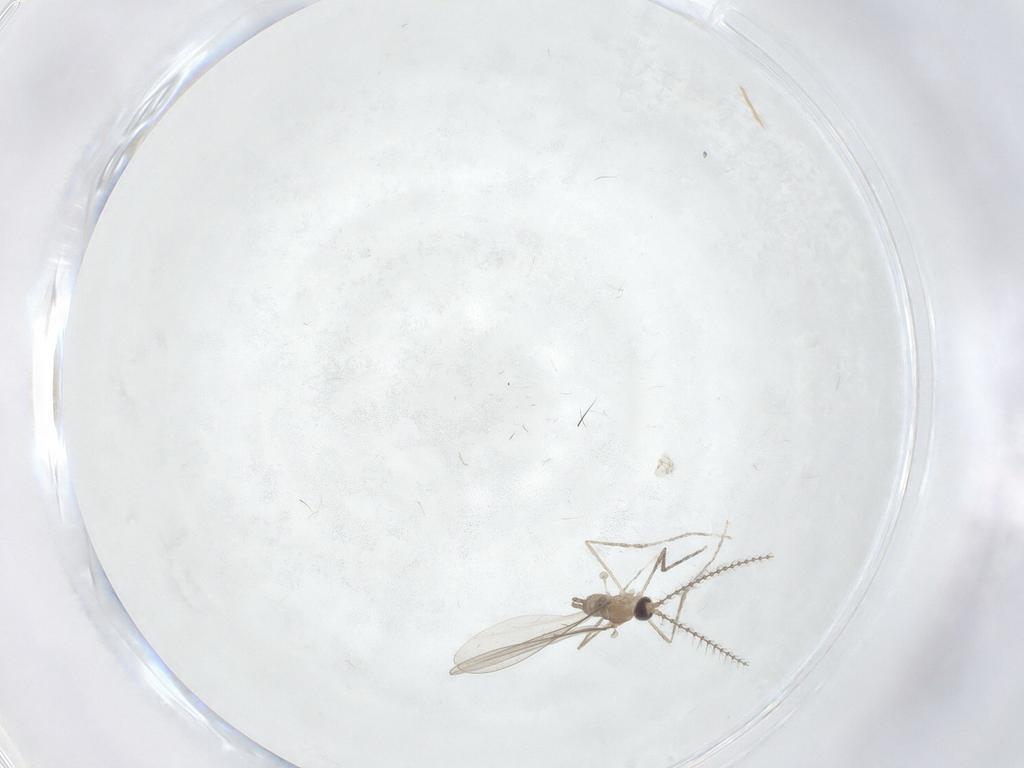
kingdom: Animalia
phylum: Arthropoda
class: Insecta
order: Diptera
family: Cecidomyiidae
